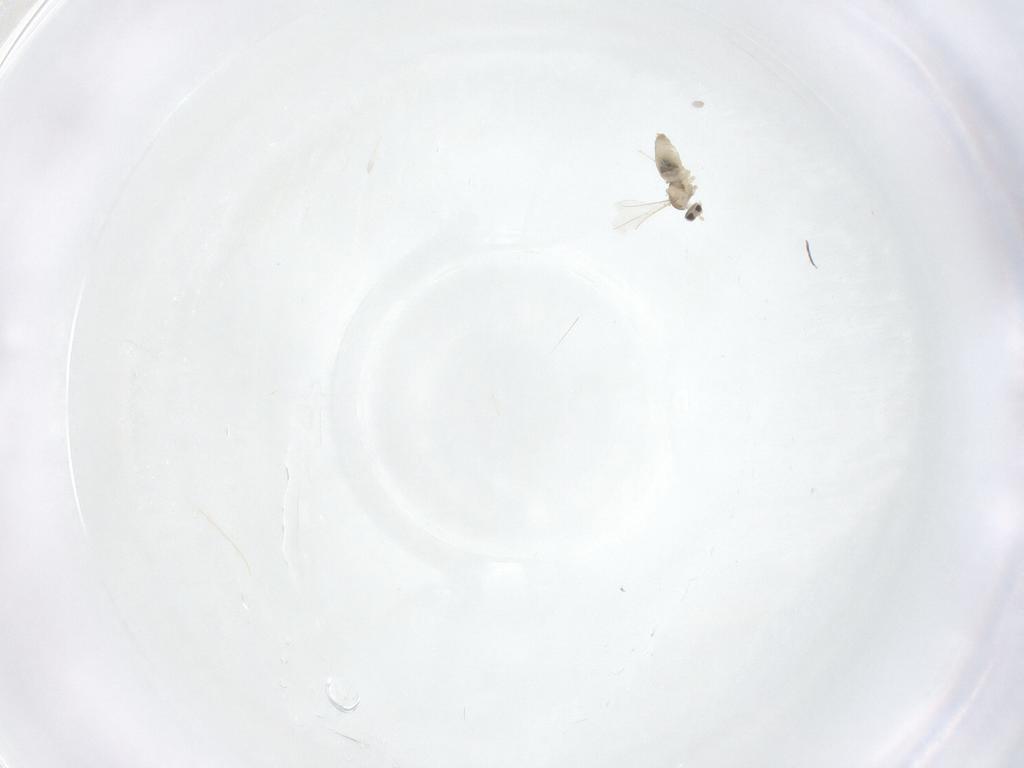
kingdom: Animalia
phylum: Arthropoda
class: Insecta
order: Diptera
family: Cecidomyiidae
